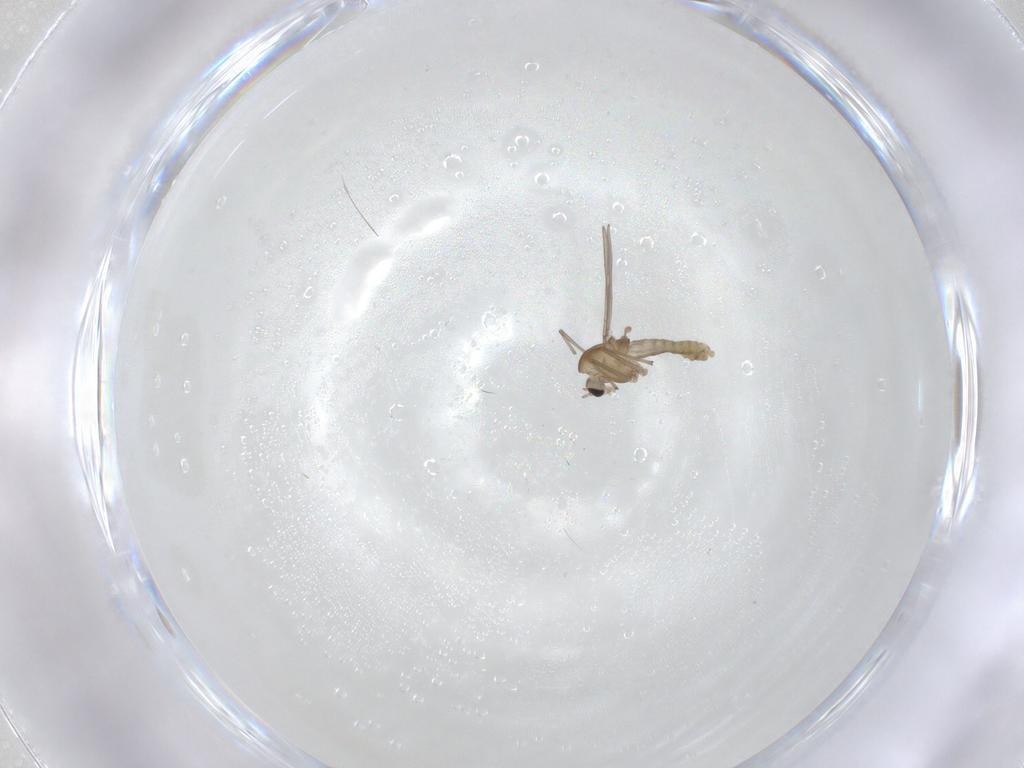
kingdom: Animalia
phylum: Arthropoda
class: Insecta
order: Diptera
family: Chironomidae
